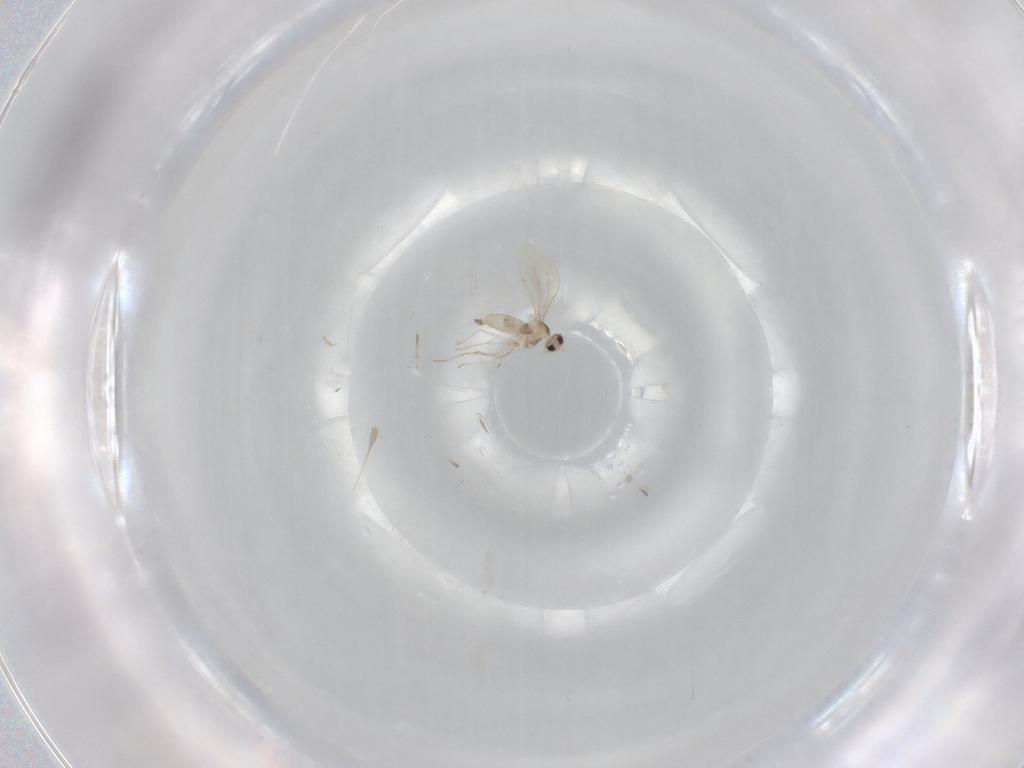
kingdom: Animalia
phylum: Arthropoda
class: Insecta
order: Diptera
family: Cecidomyiidae
